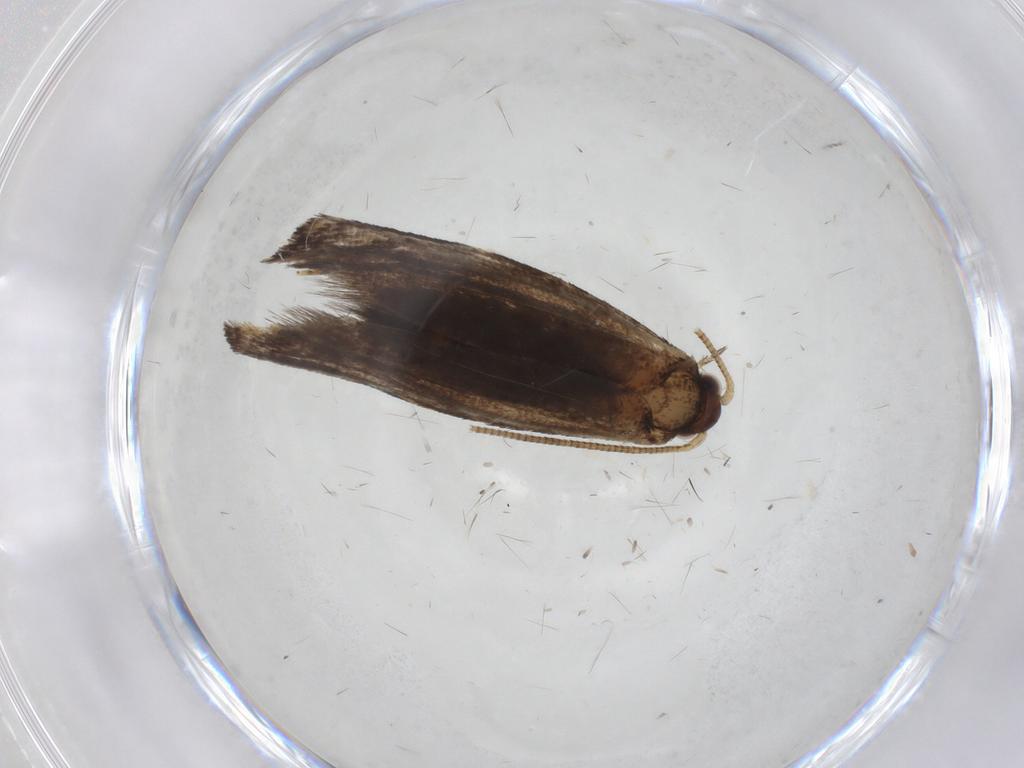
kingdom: Animalia
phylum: Arthropoda
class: Insecta
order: Lepidoptera
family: Tineidae
